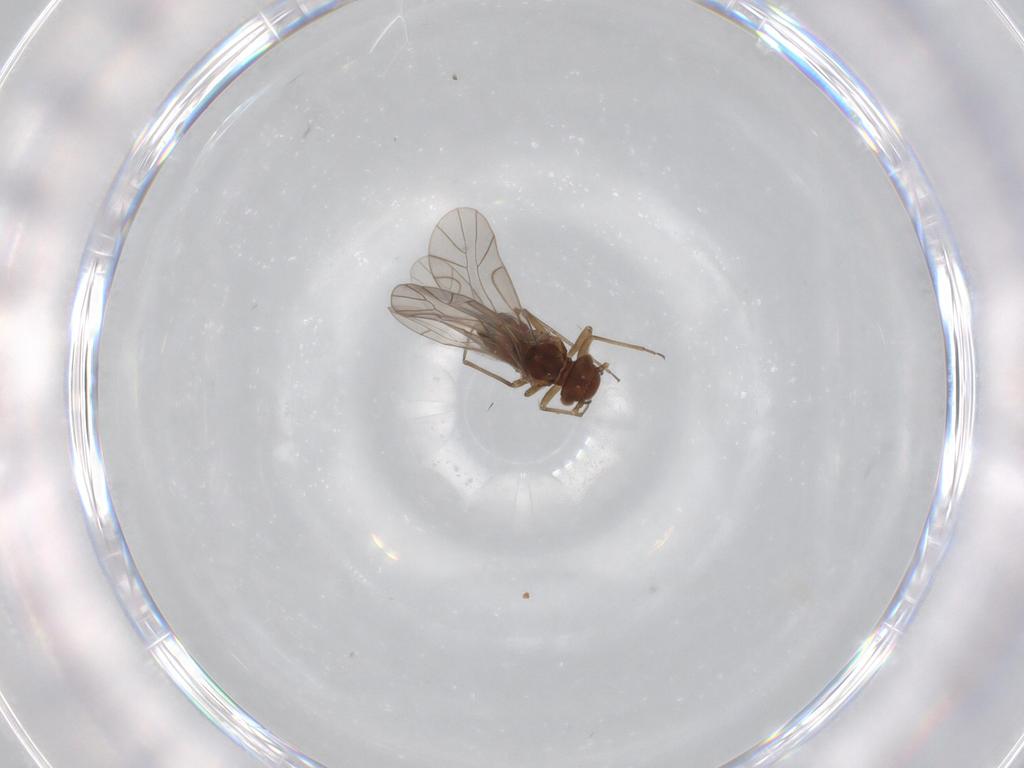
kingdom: Animalia
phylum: Arthropoda
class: Insecta
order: Psocodea
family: Lachesillidae
